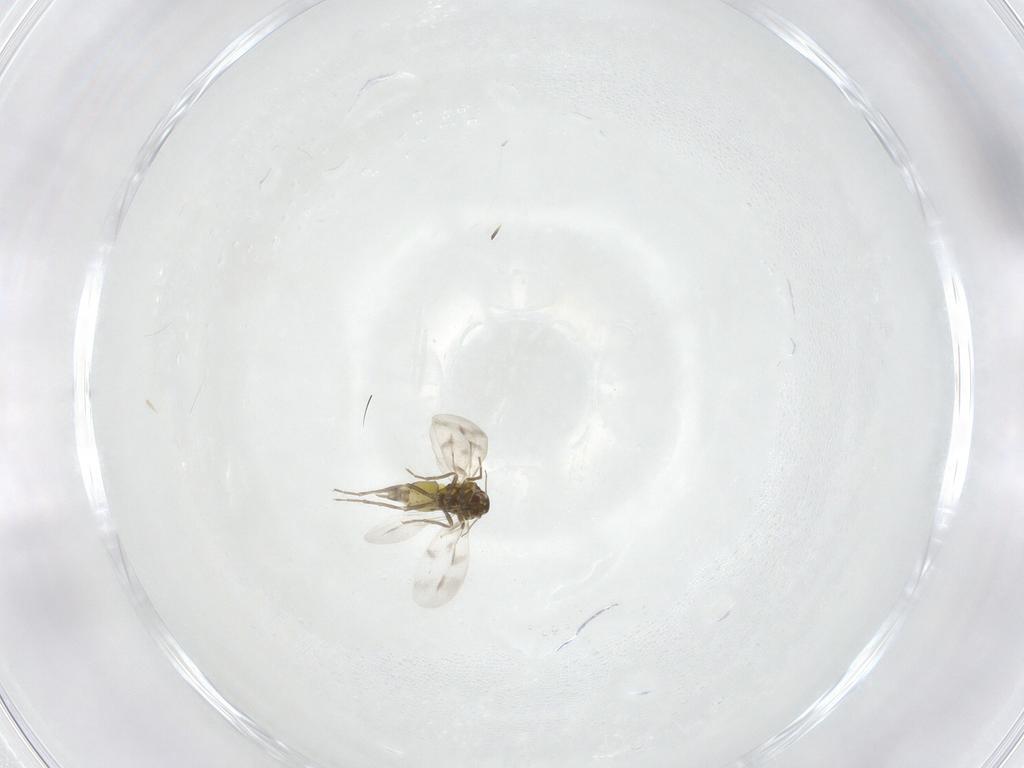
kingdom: Animalia
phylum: Arthropoda
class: Insecta
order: Hemiptera
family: Aleyrodidae
